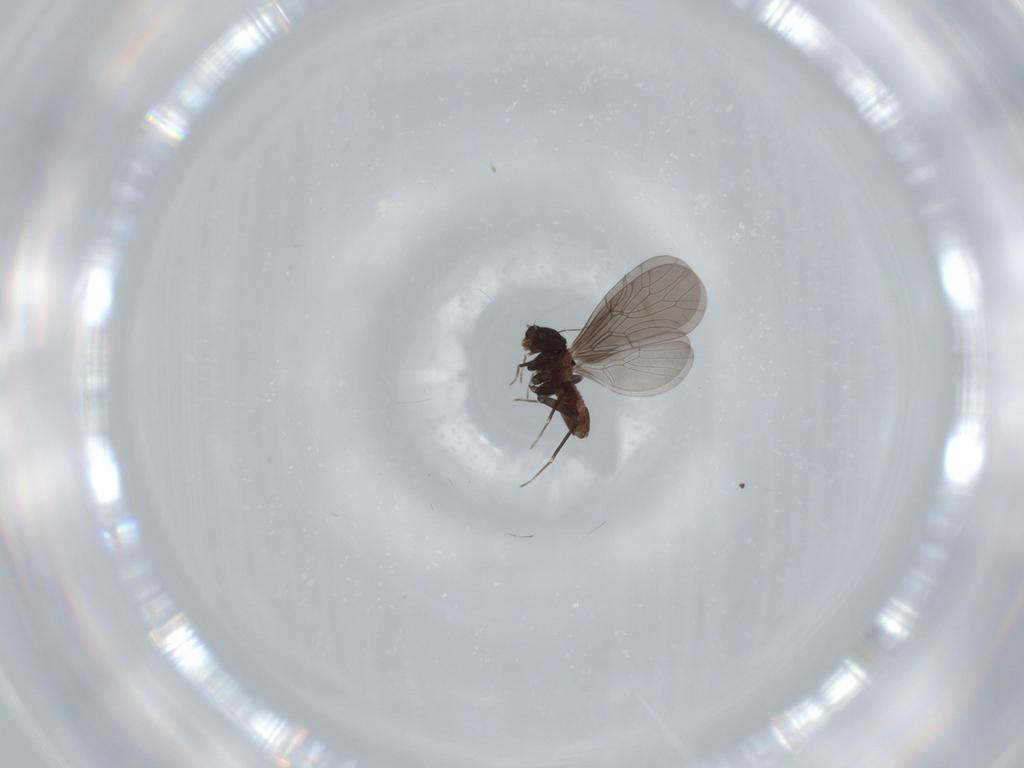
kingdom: Animalia
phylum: Arthropoda
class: Insecta
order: Psocodea
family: Lepidopsocidae
